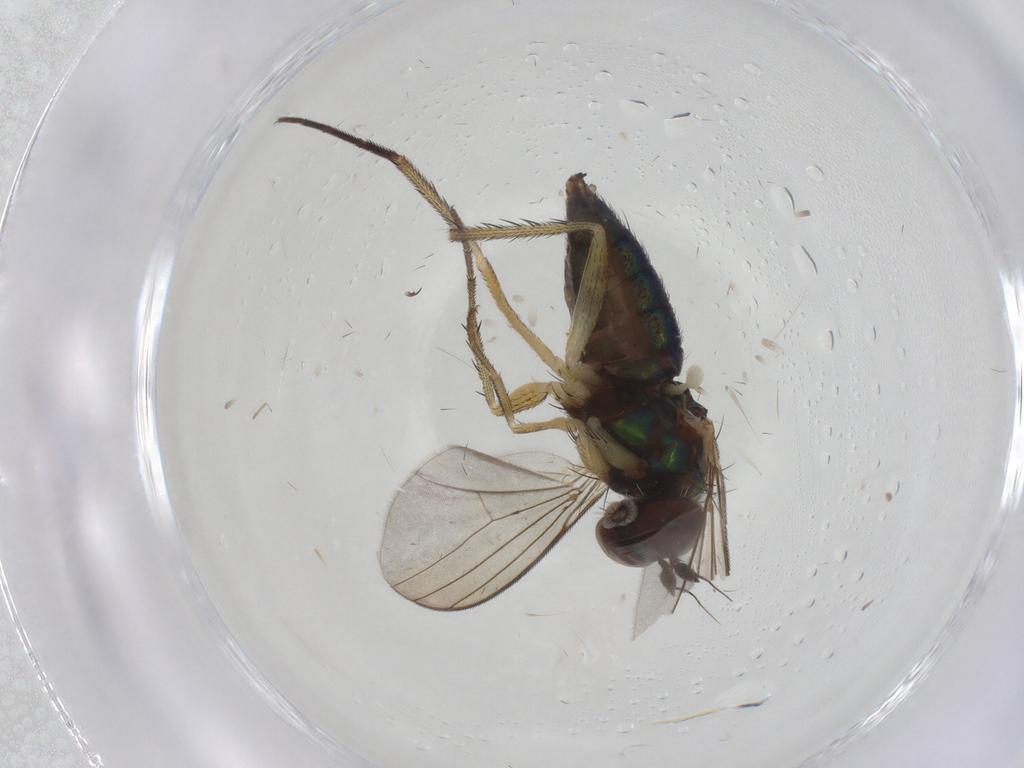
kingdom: Animalia
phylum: Arthropoda
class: Insecta
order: Diptera
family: Dolichopodidae
